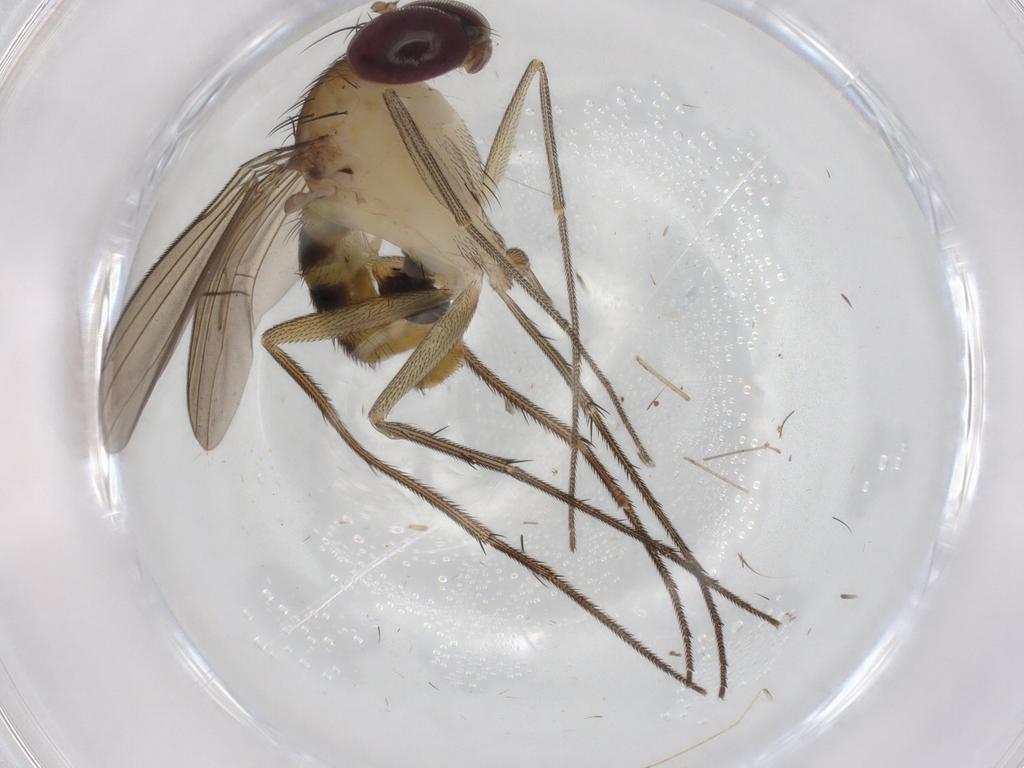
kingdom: Animalia
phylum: Arthropoda
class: Insecta
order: Diptera
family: Dolichopodidae
